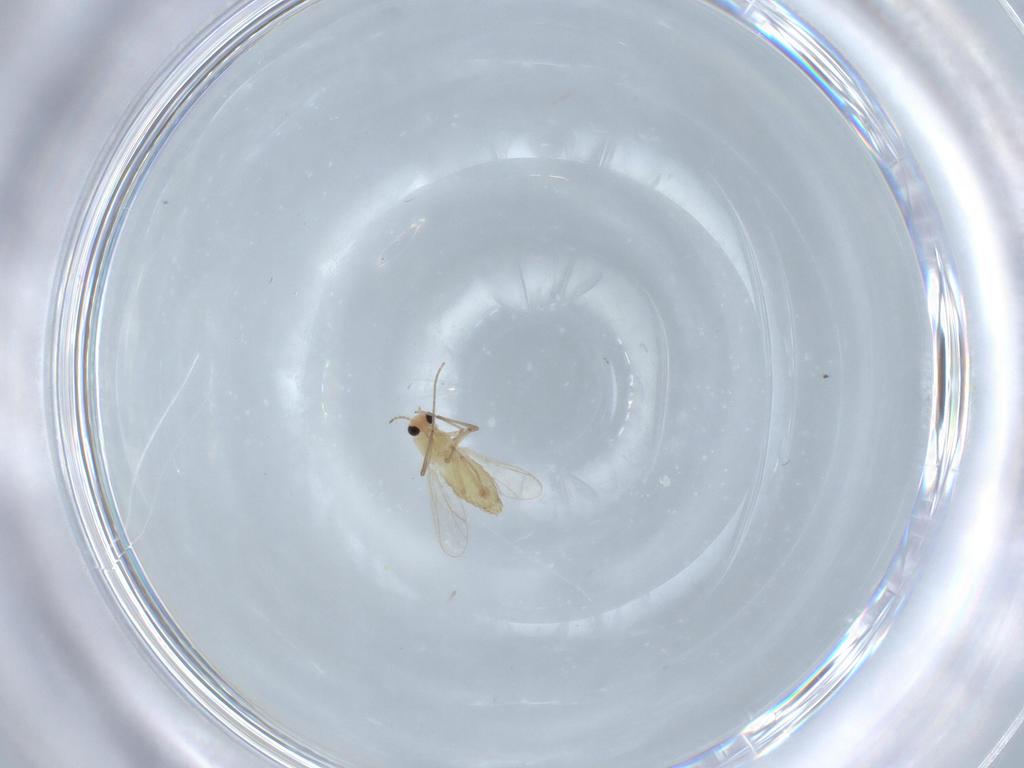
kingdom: Animalia
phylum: Arthropoda
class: Insecta
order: Diptera
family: Chironomidae
